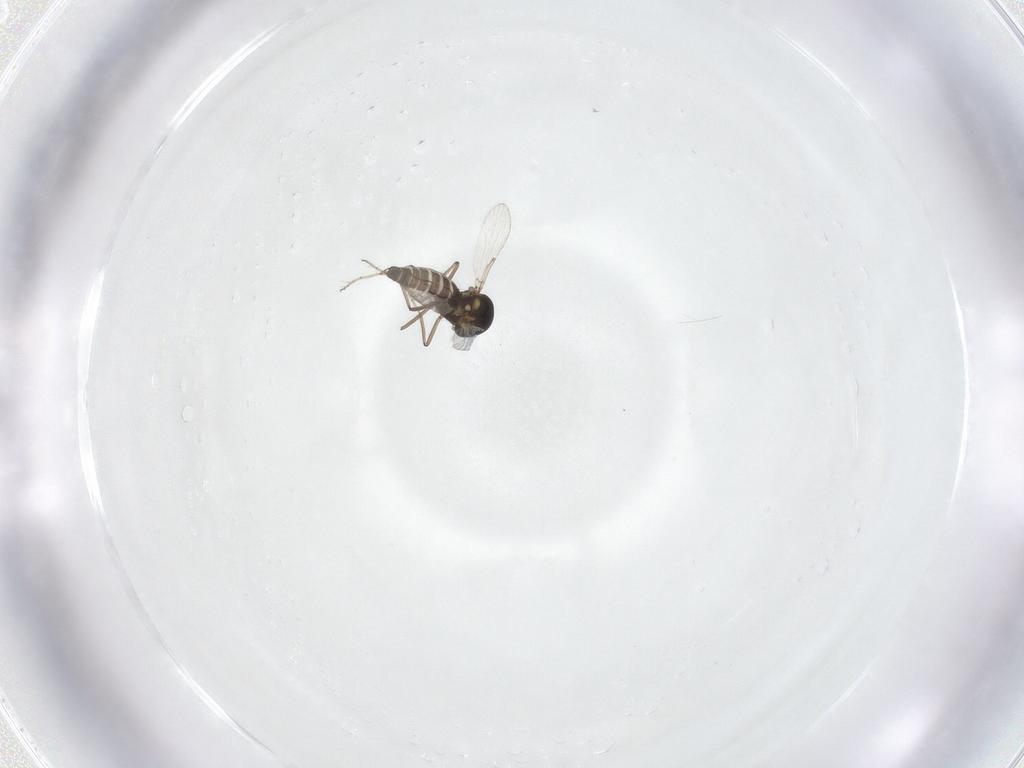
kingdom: Animalia
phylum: Arthropoda
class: Insecta
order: Diptera
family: Ceratopogonidae
